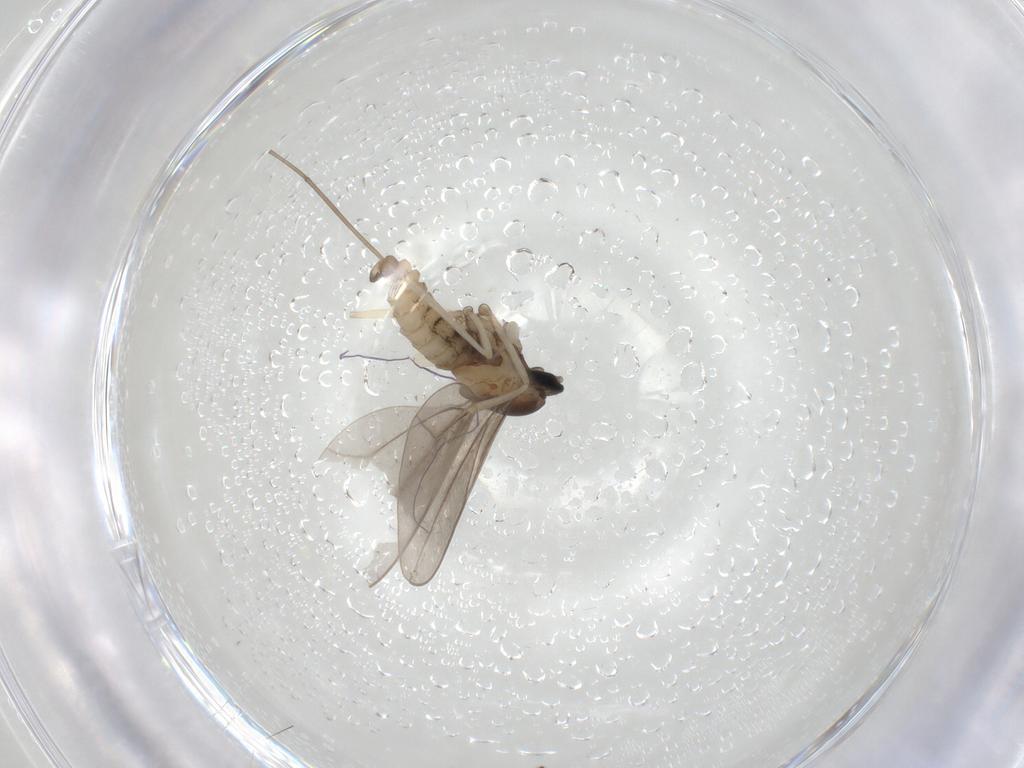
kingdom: Animalia
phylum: Arthropoda
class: Insecta
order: Diptera
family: Cecidomyiidae
